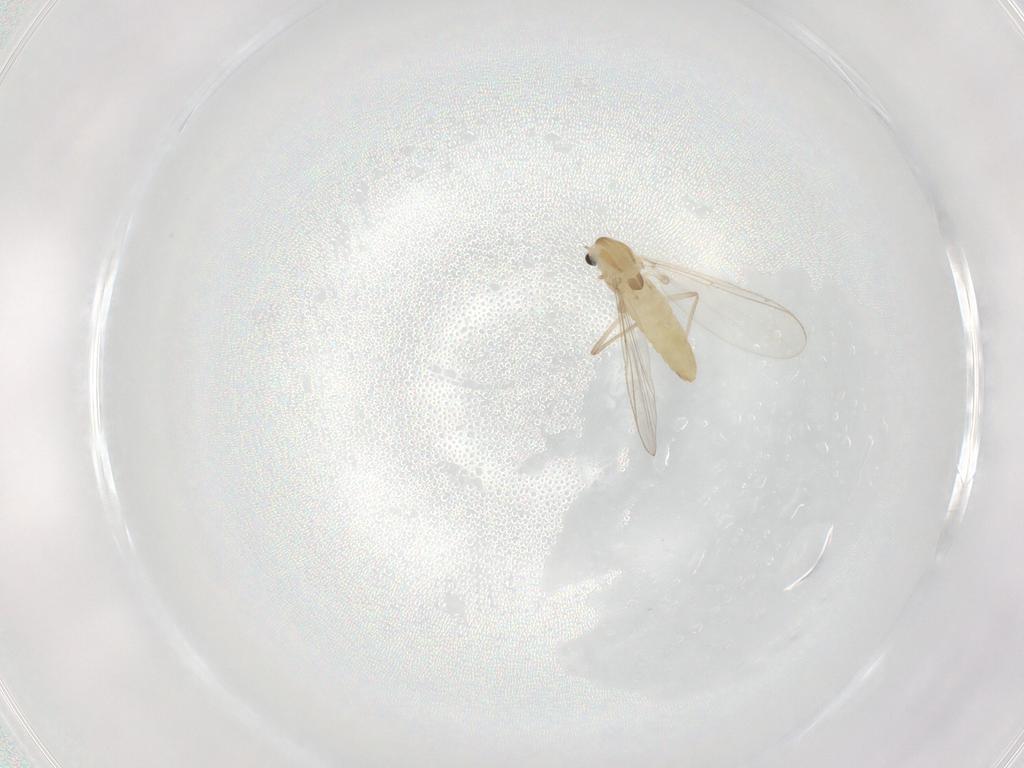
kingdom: Animalia
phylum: Arthropoda
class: Insecta
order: Diptera
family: Chironomidae
